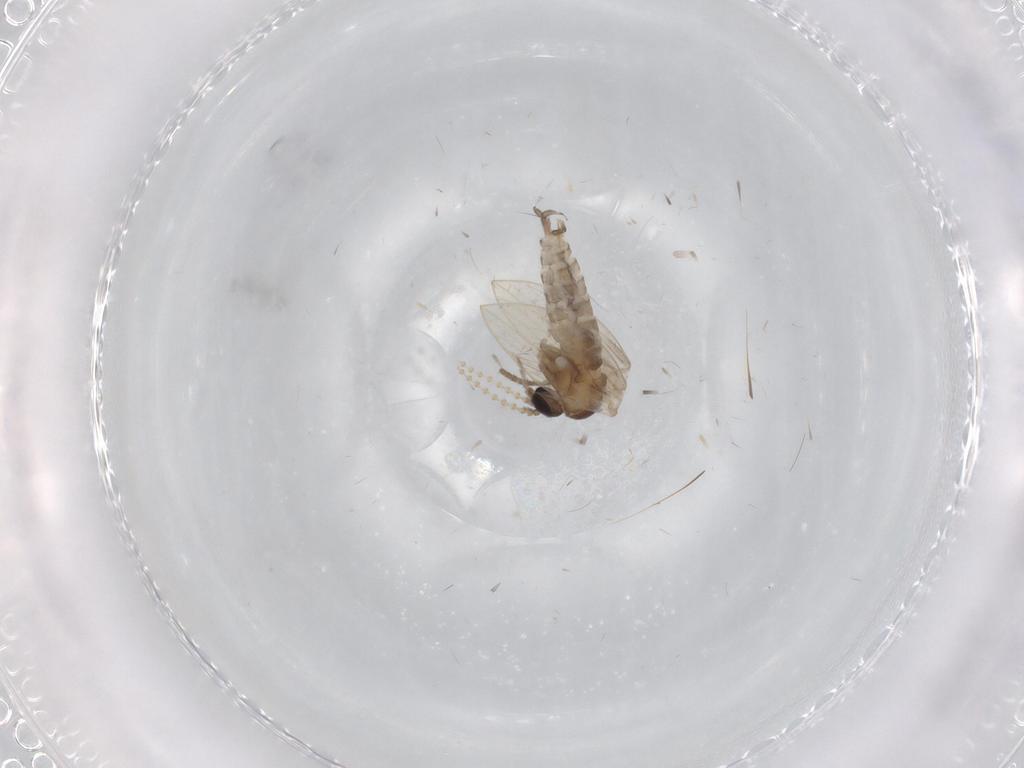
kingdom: Animalia
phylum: Arthropoda
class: Insecta
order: Diptera
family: Psychodidae
